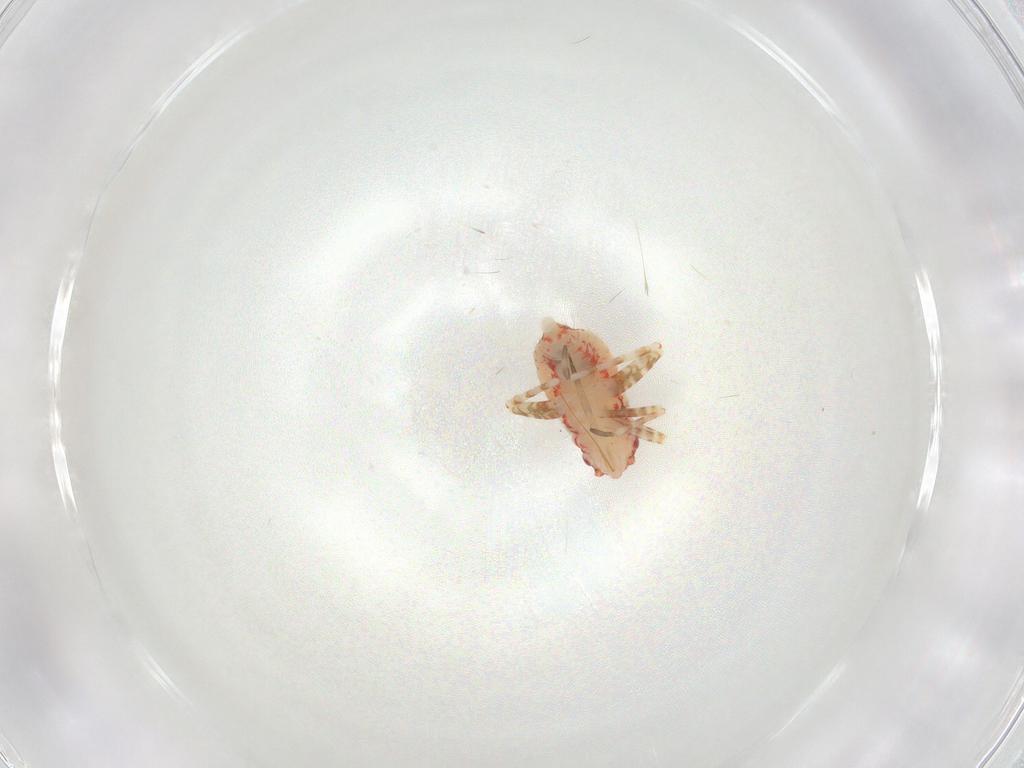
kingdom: Animalia
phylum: Arthropoda
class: Insecta
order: Hemiptera
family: Miridae
